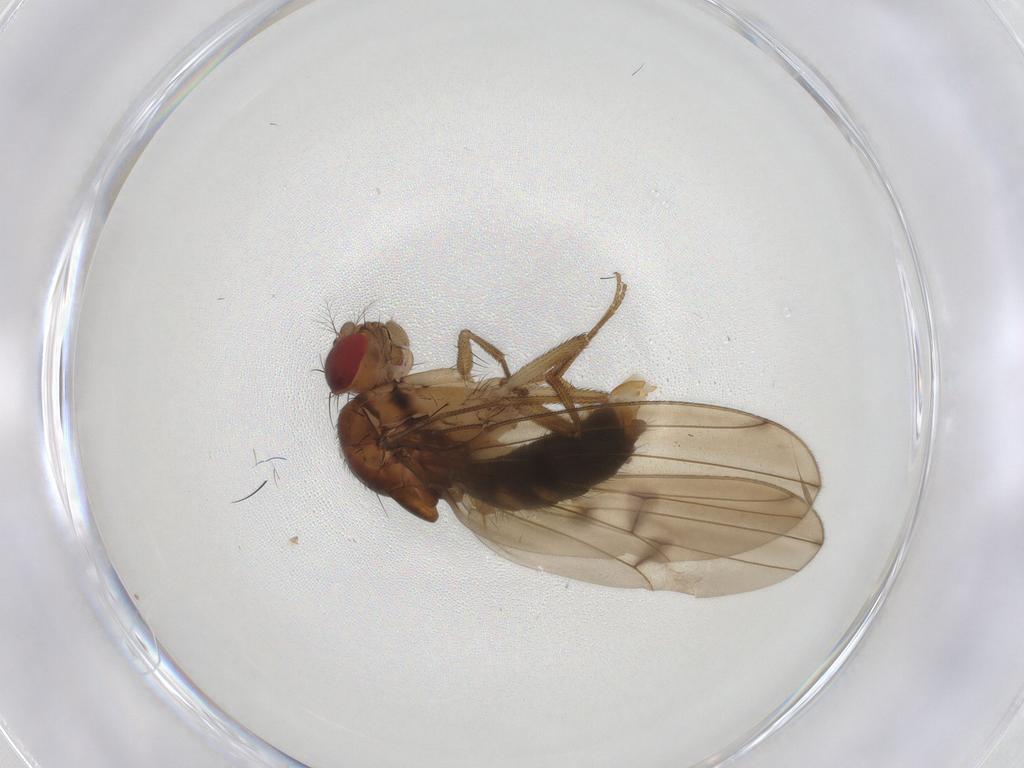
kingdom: Animalia
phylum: Arthropoda
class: Insecta
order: Diptera
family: Drosophilidae
